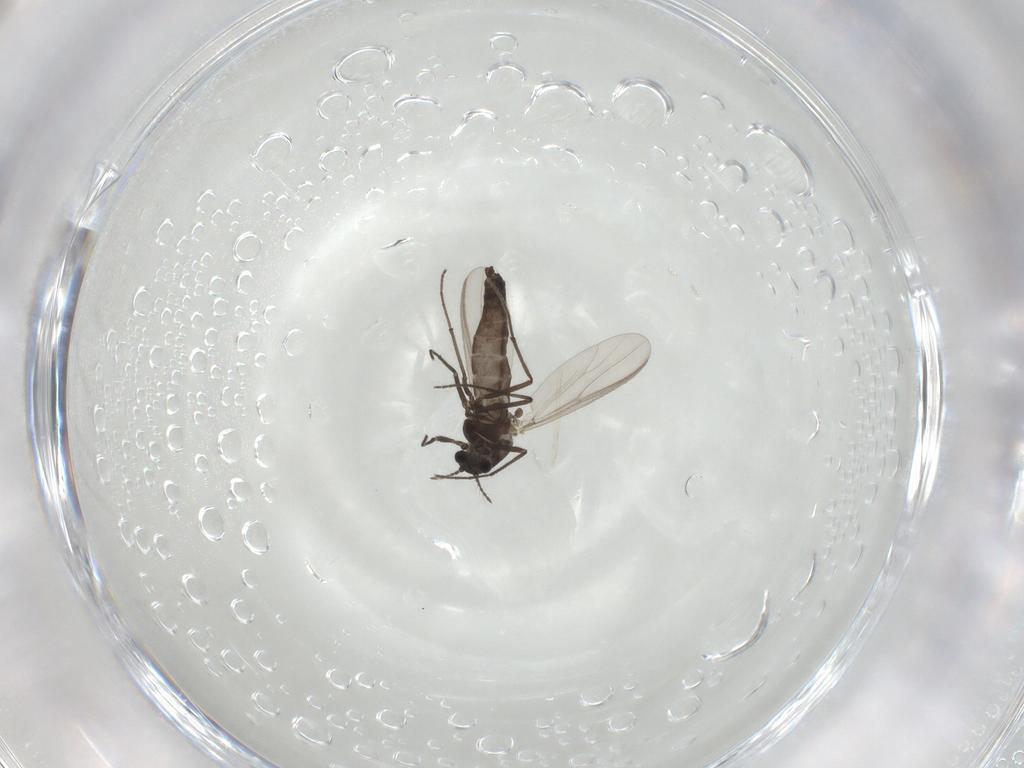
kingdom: Animalia
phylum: Arthropoda
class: Insecta
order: Diptera
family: Chironomidae
